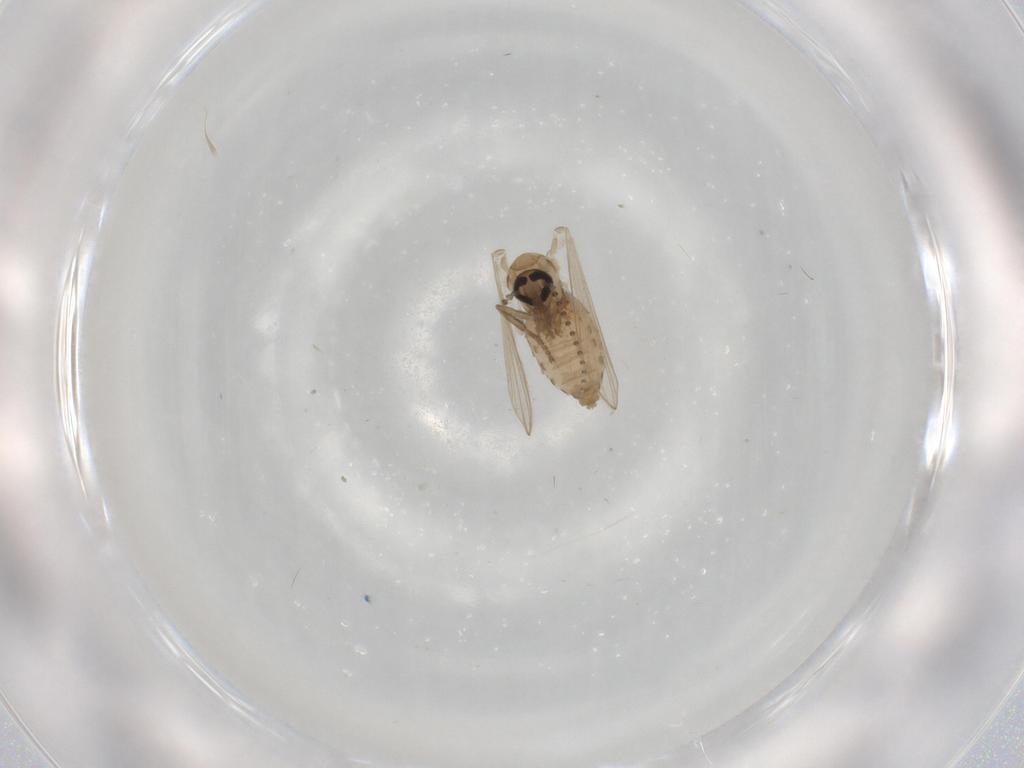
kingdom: Animalia
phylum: Arthropoda
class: Insecta
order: Diptera
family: Psychodidae
